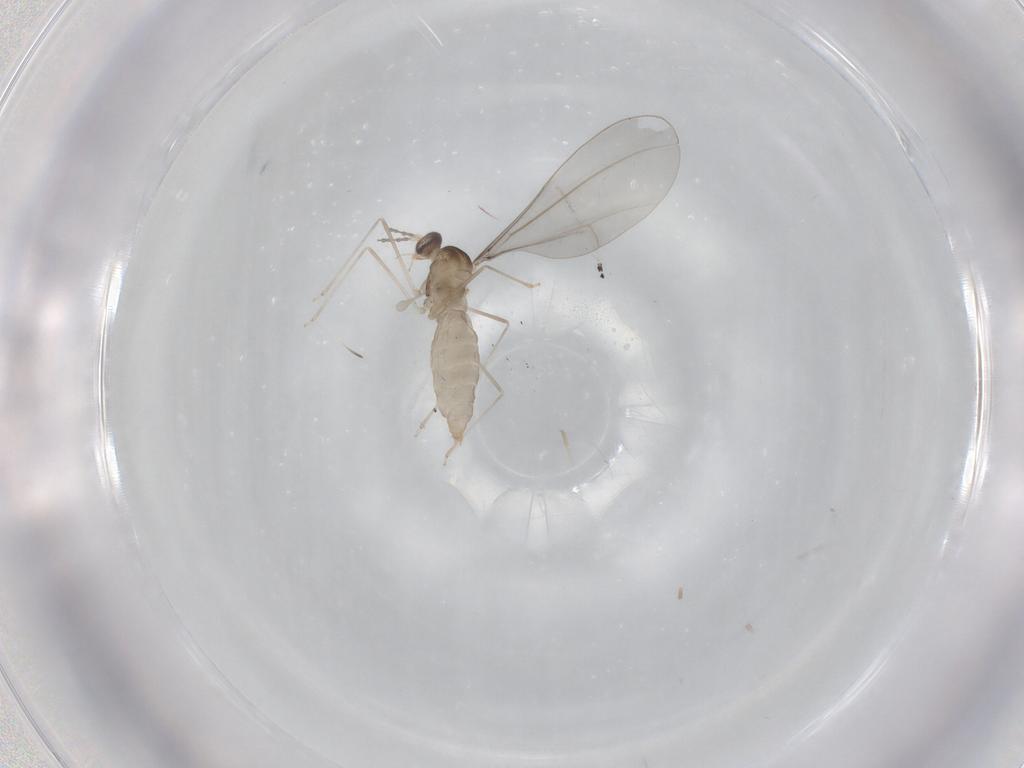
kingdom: Animalia
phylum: Arthropoda
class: Insecta
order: Diptera
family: Cecidomyiidae
